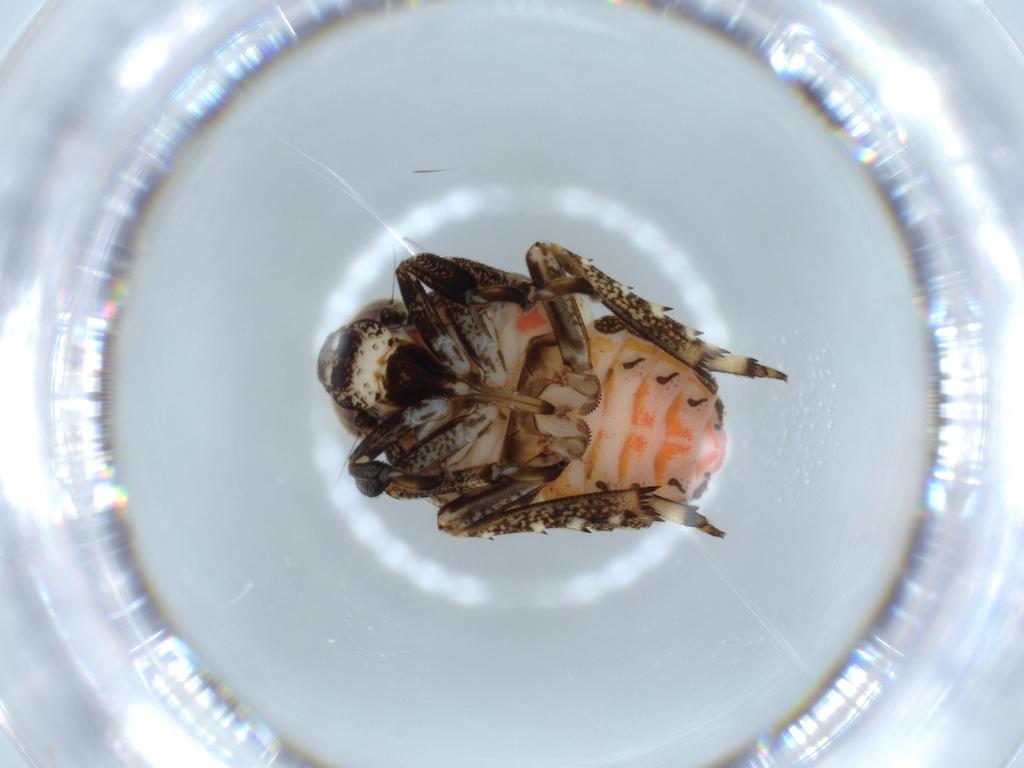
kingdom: Animalia
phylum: Arthropoda
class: Insecta
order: Hemiptera
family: Issidae
